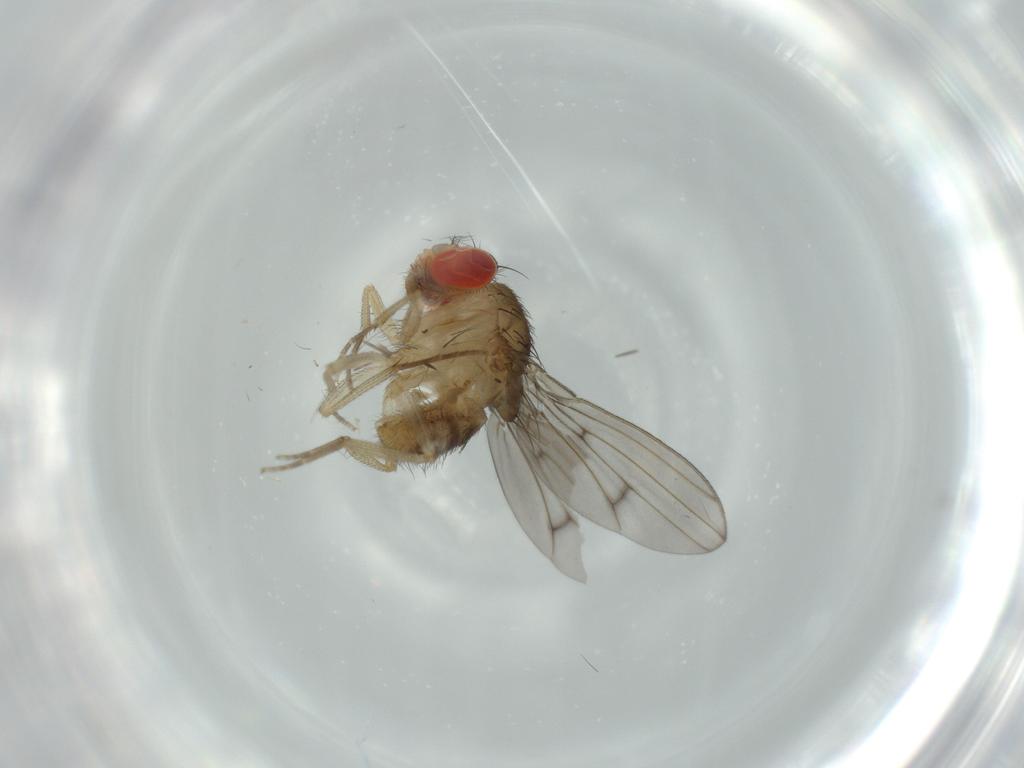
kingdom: Animalia
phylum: Arthropoda
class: Insecta
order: Diptera
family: Drosophilidae
